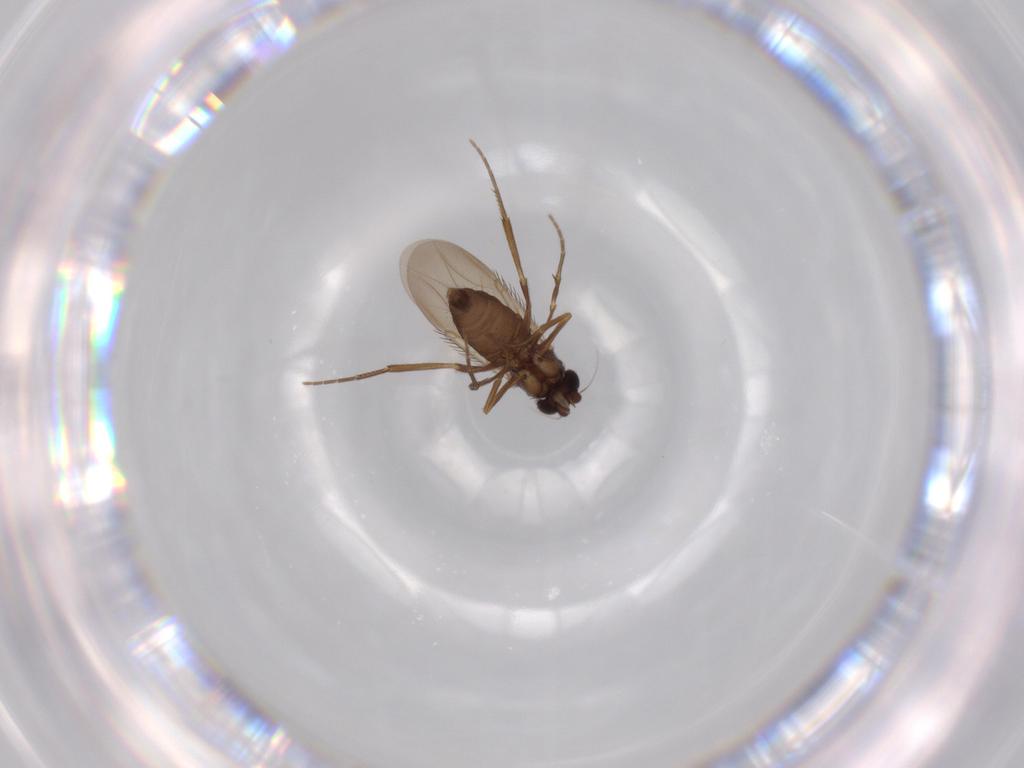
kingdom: Animalia
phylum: Arthropoda
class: Insecta
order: Diptera
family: Phoridae
